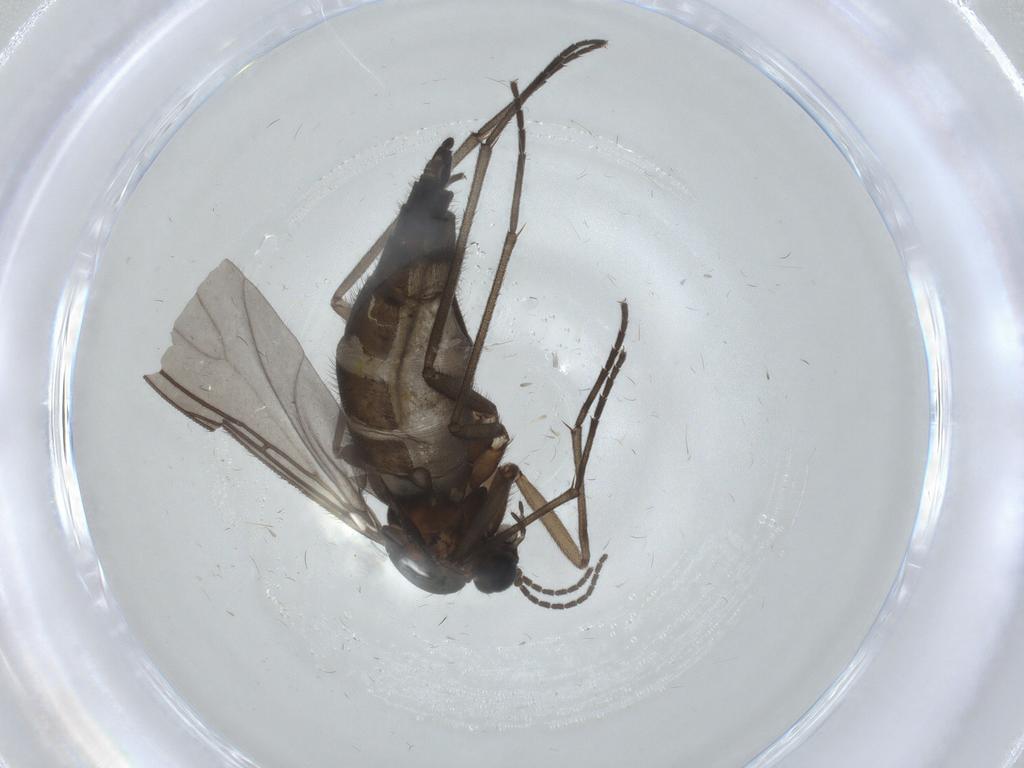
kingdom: Animalia
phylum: Arthropoda
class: Insecta
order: Diptera
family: Sciaridae
